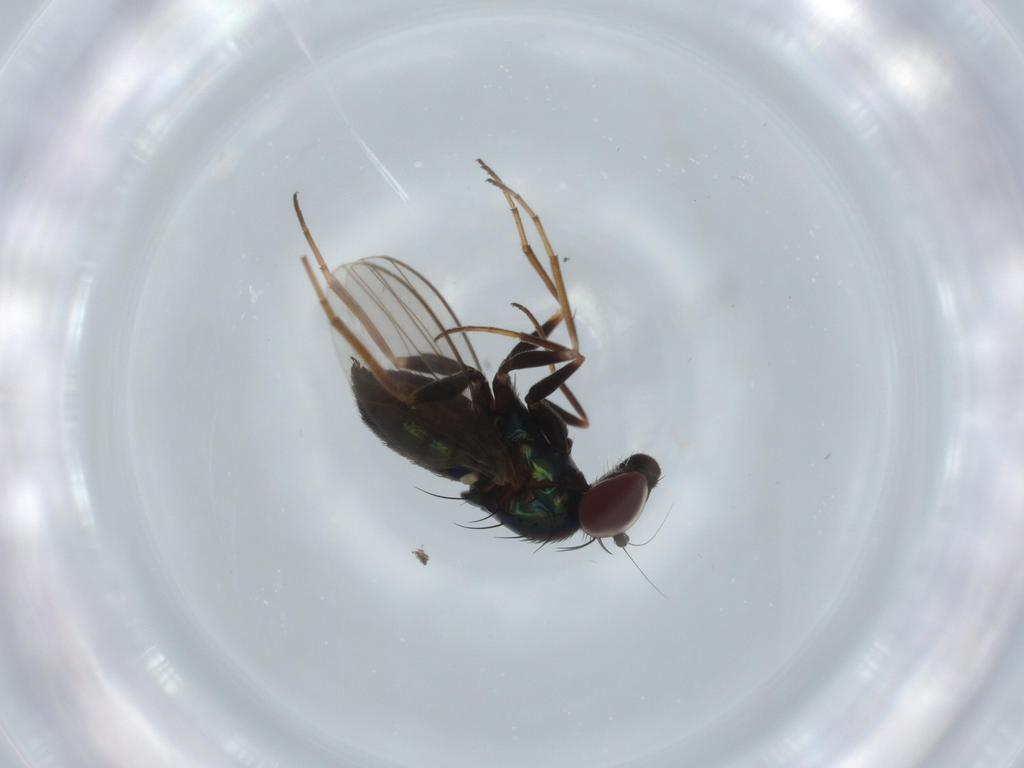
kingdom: Animalia
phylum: Arthropoda
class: Insecta
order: Diptera
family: Dolichopodidae
